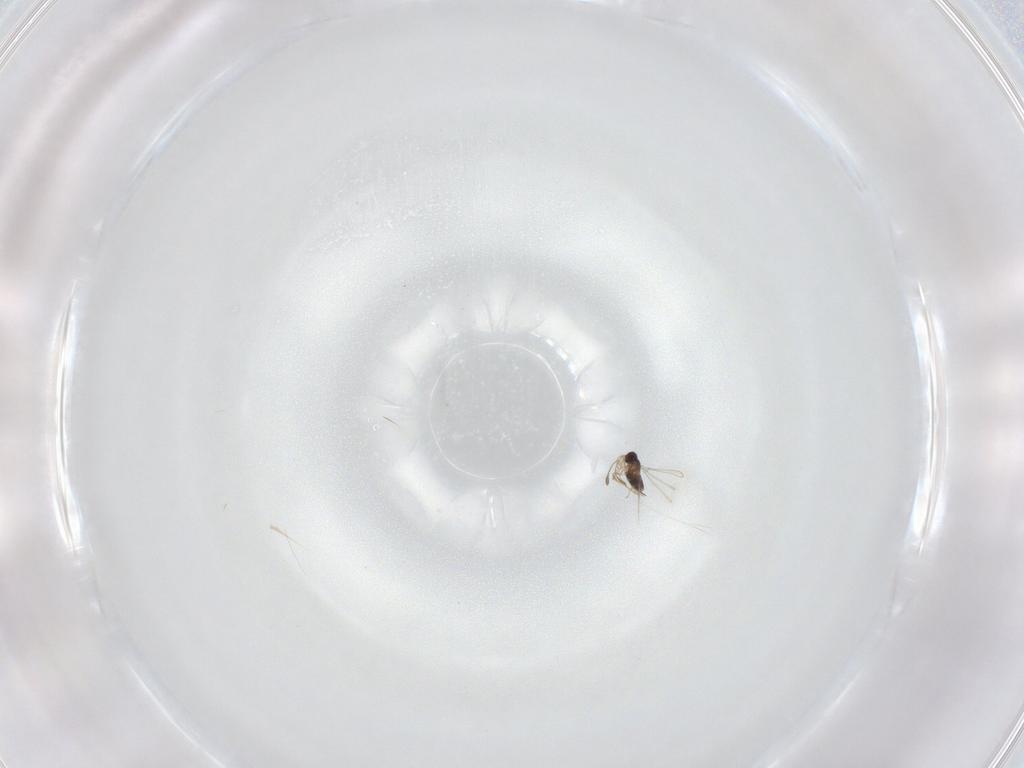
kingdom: Animalia
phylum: Arthropoda
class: Insecta
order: Hymenoptera
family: Mymaridae
